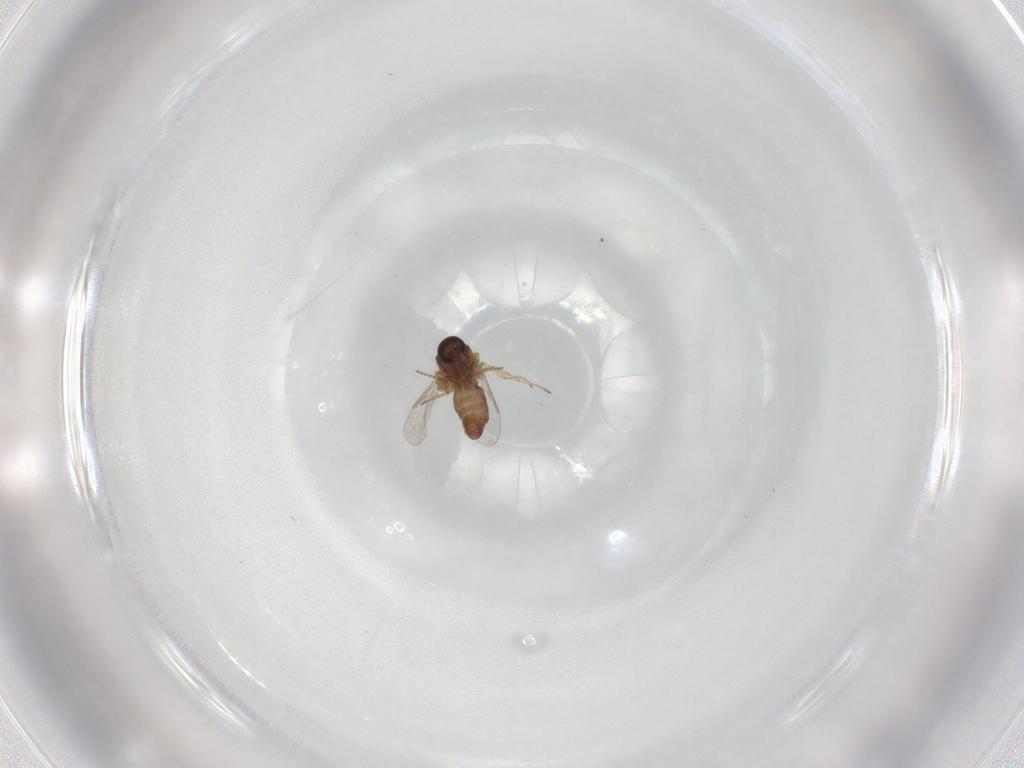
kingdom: Animalia
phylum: Arthropoda
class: Insecta
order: Diptera
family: Ceratopogonidae
